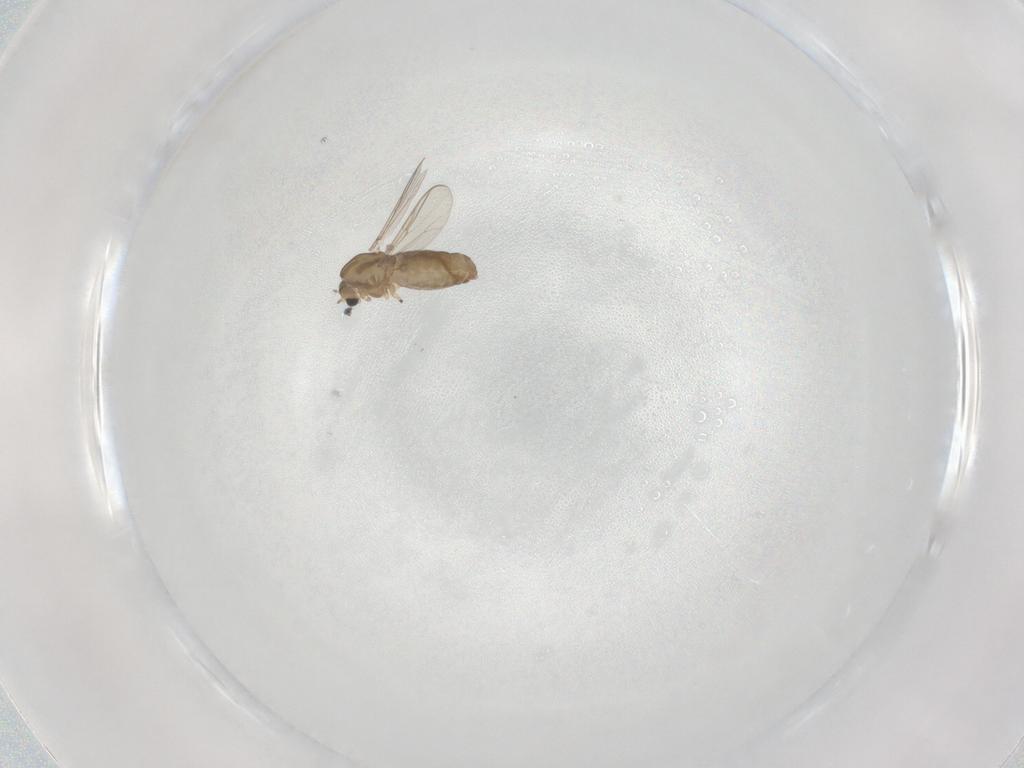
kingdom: Animalia
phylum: Arthropoda
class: Insecta
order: Diptera
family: Chironomidae
